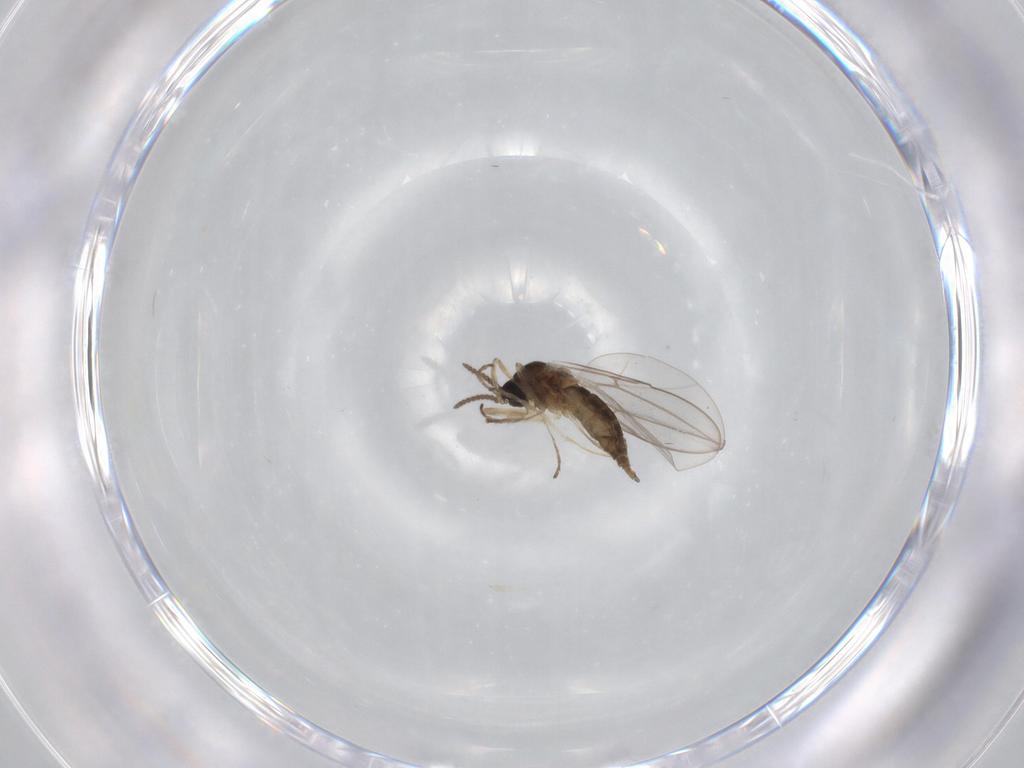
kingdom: Animalia
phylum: Arthropoda
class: Insecta
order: Diptera
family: Cecidomyiidae
